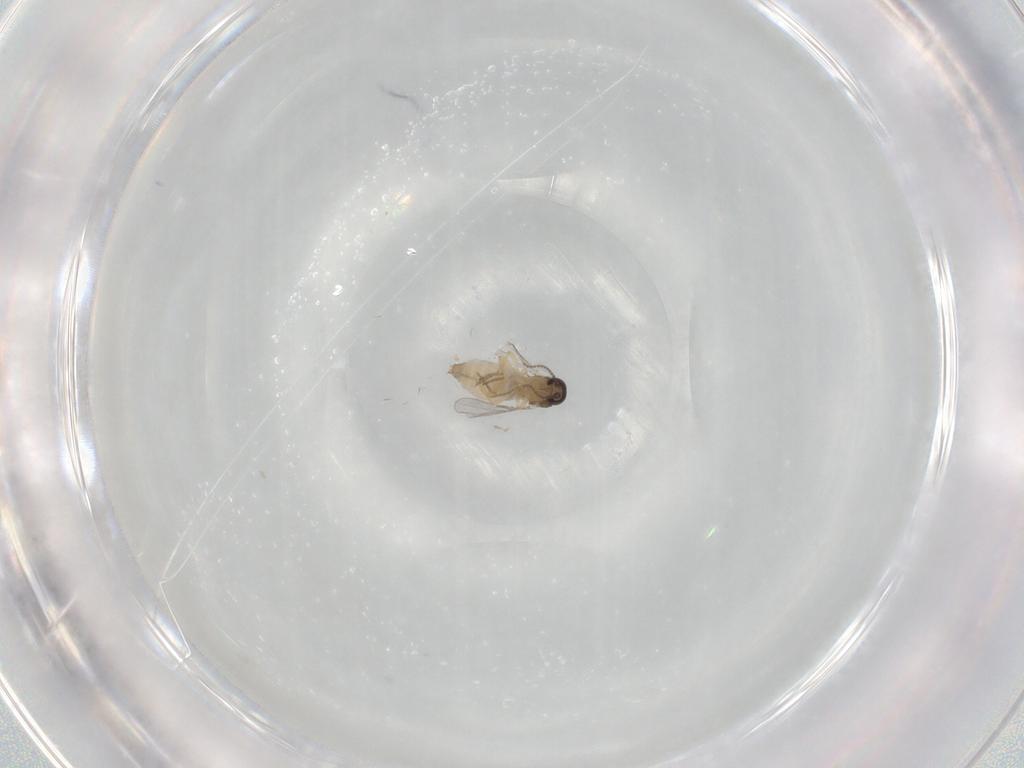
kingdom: Animalia
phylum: Arthropoda
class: Insecta
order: Diptera
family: Ceratopogonidae
